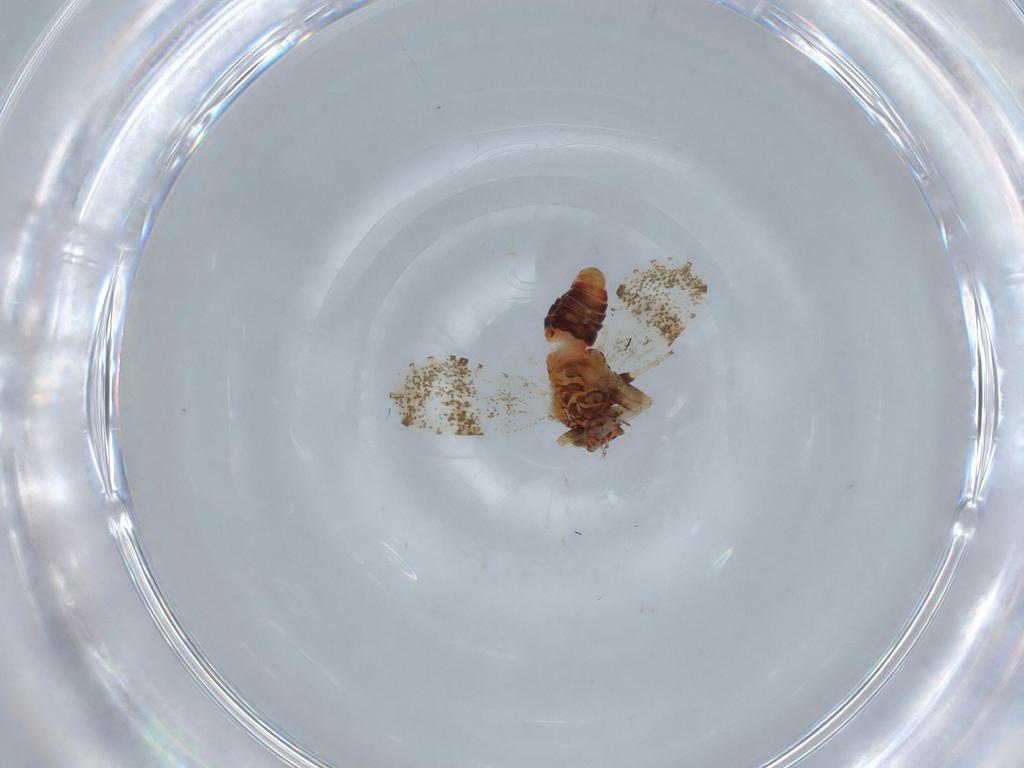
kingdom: Animalia
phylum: Arthropoda
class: Insecta
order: Hemiptera
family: Psylloidea_incertae_sedis
